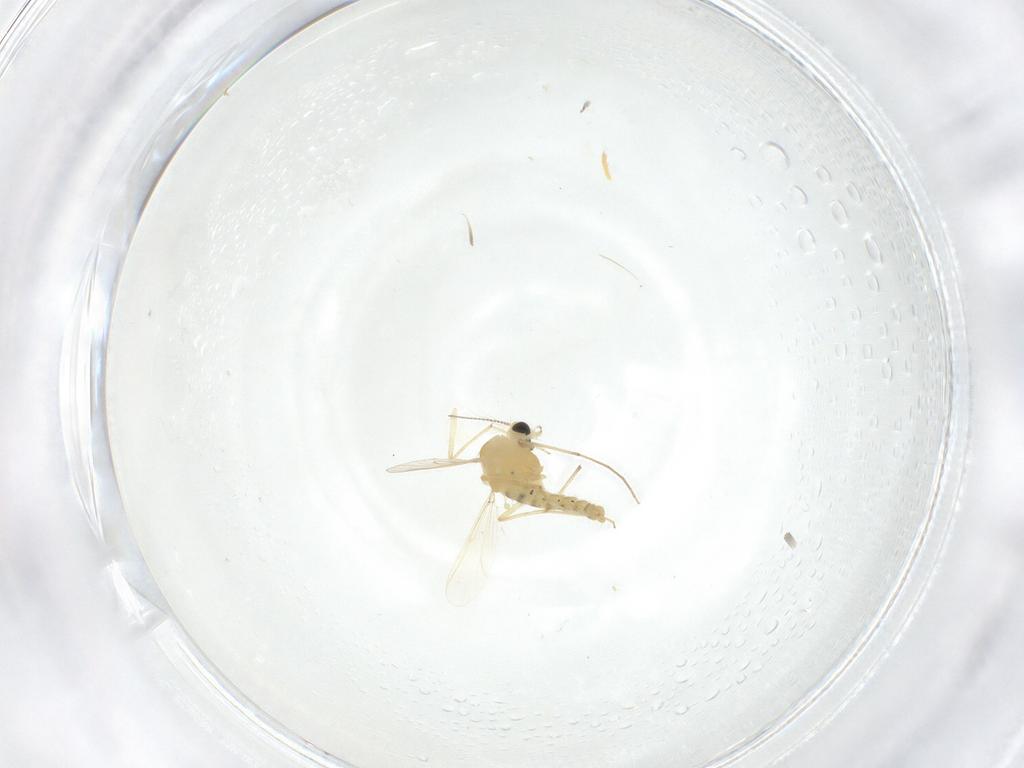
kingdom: Animalia
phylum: Arthropoda
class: Insecta
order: Diptera
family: Chironomidae
